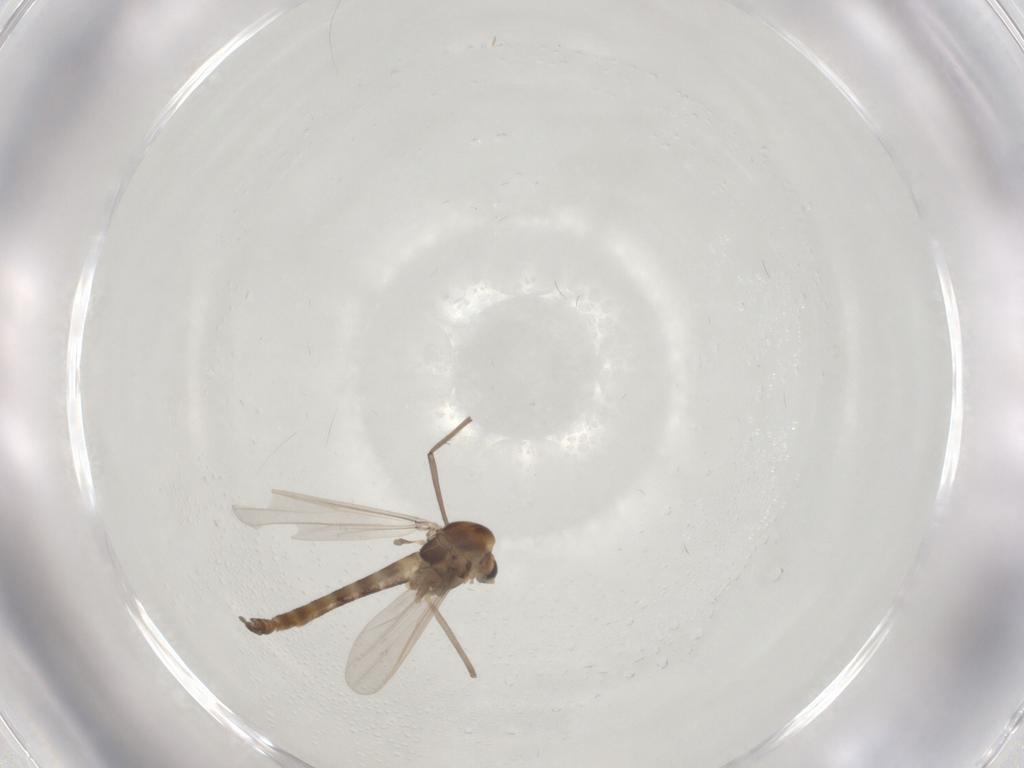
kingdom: Animalia
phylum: Arthropoda
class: Insecta
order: Diptera
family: Chironomidae
